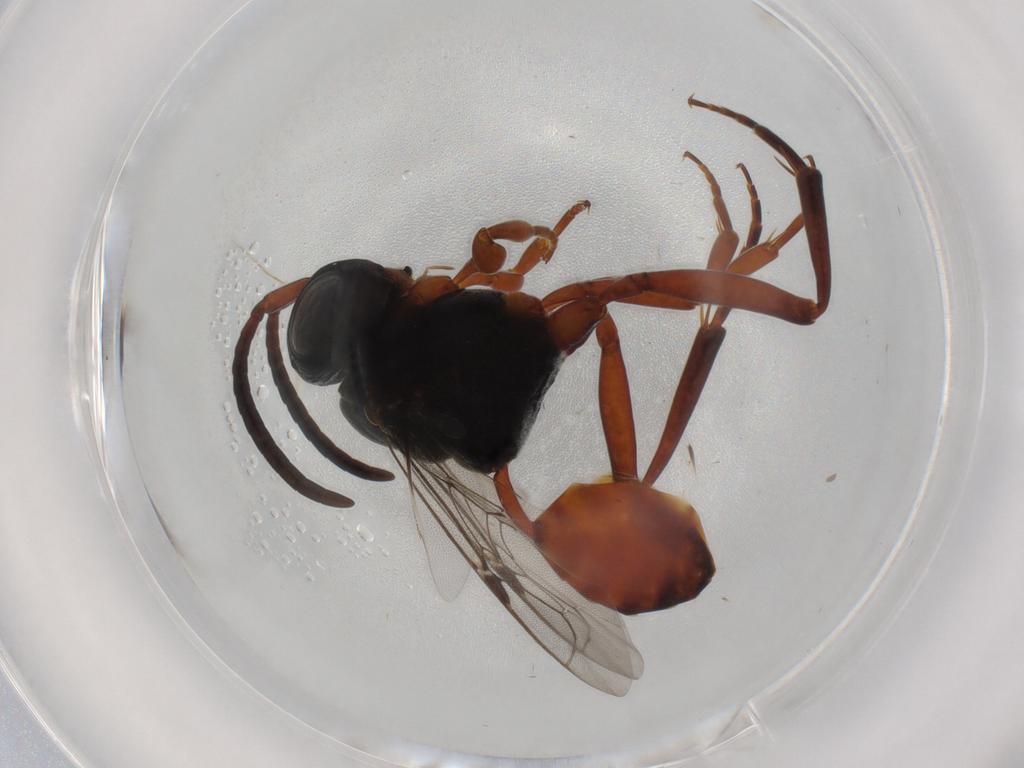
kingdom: Animalia
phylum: Arthropoda
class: Insecta
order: Hymenoptera
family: Evaniidae
